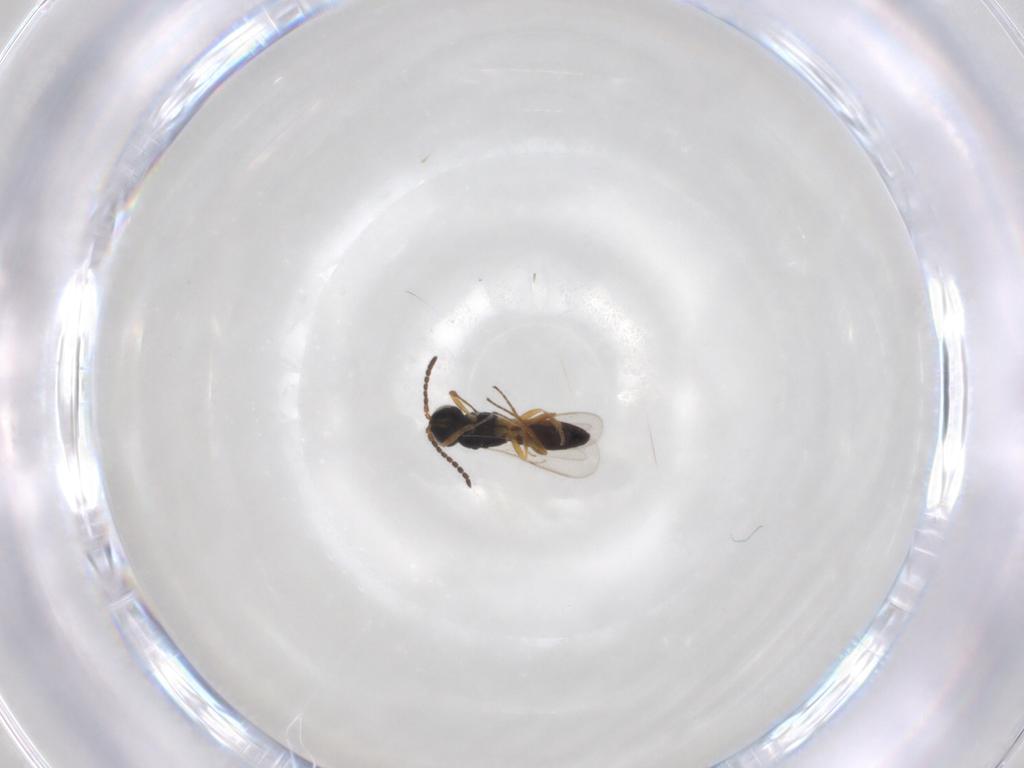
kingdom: Animalia
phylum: Arthropoda
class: Insecta
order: Hymenoptera
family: Scelionidae
